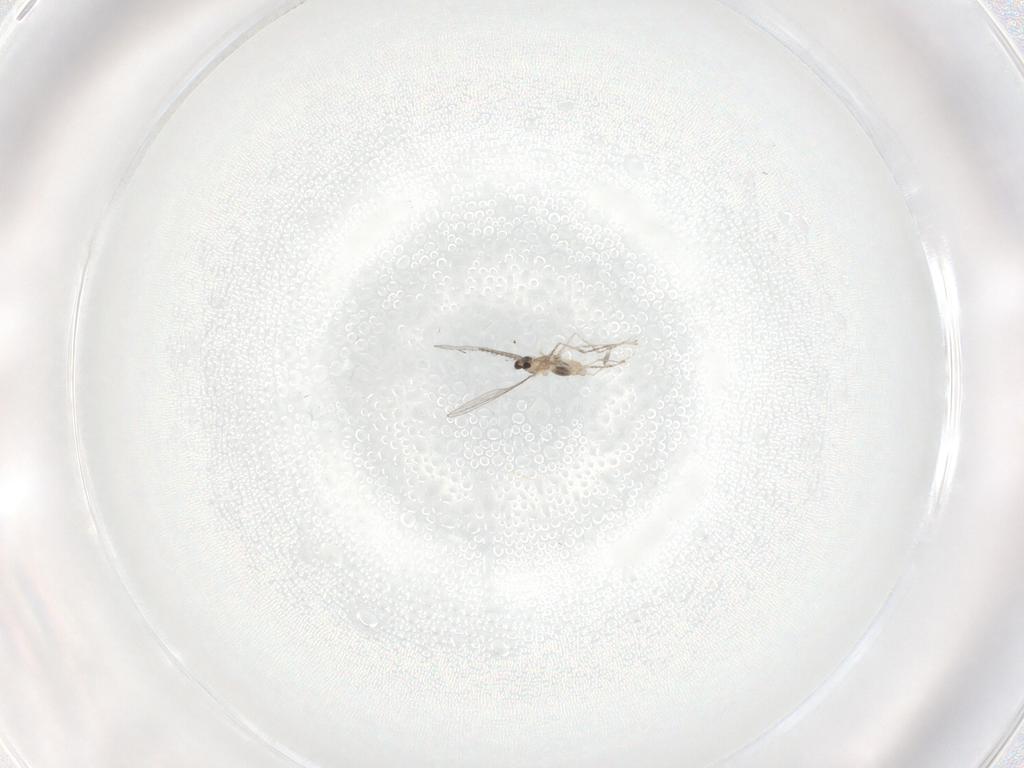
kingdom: Animalia
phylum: Arthropoda
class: Insecta
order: Diptera
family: Cecidomyiidae
